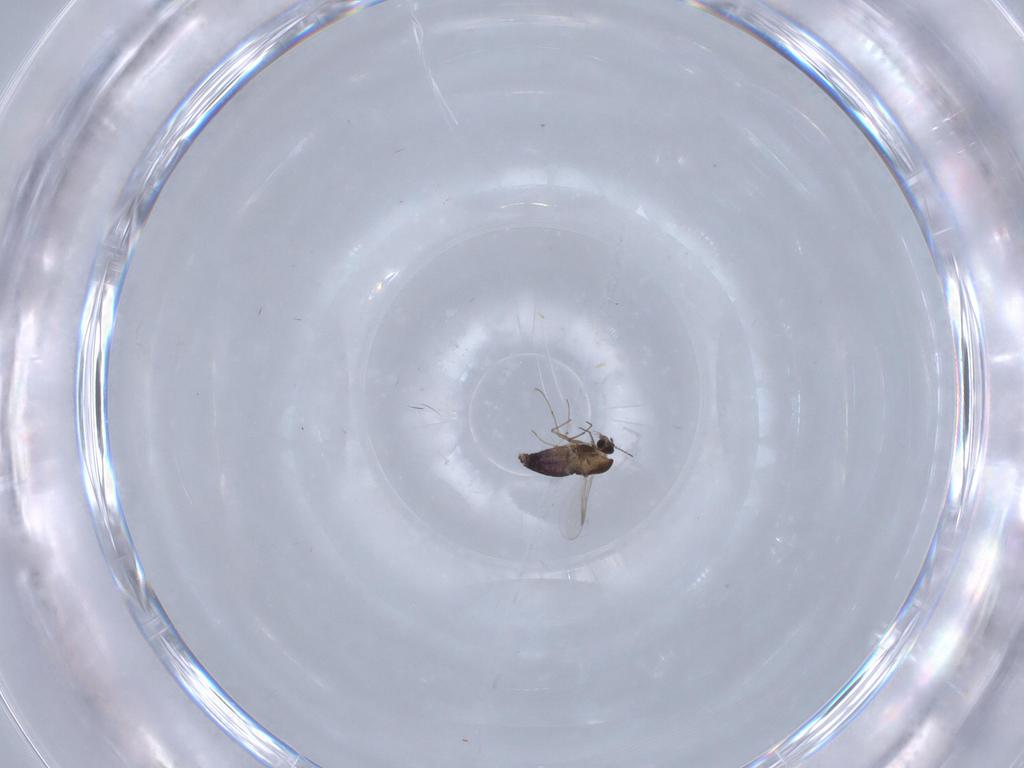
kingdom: Animalia
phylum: Arthropoda
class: Insecta
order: Diptera
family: Chironomidae
